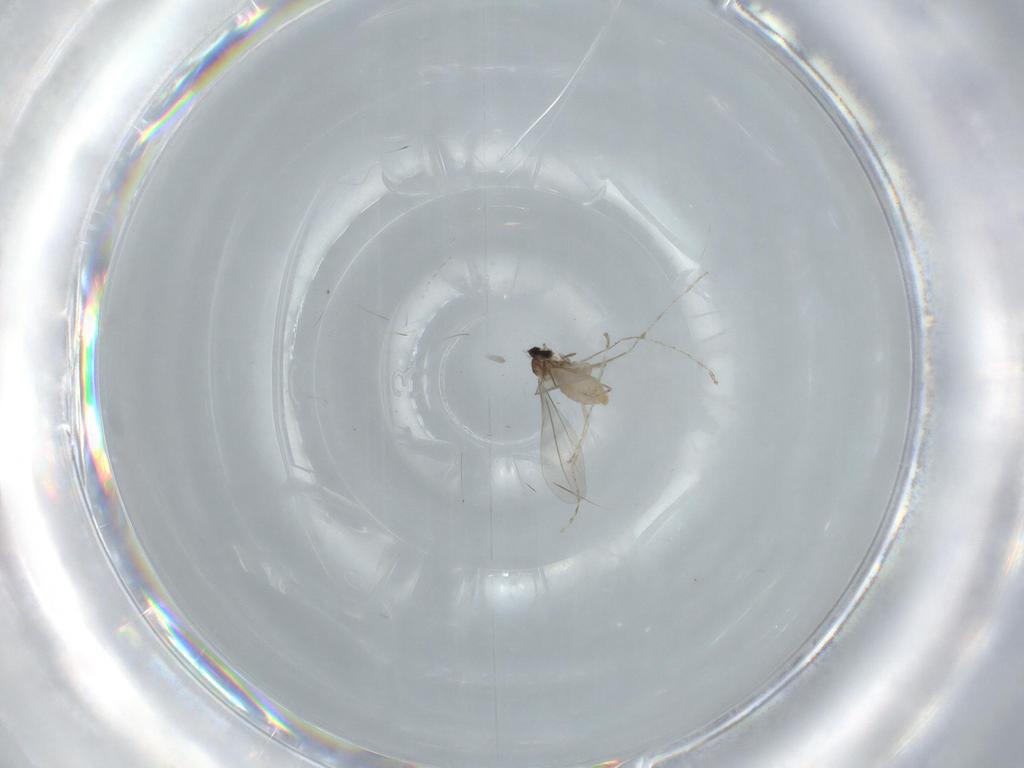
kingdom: Animalia
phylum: Arthropoda
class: Insecta
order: Diptera
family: Cecidomyiidae
